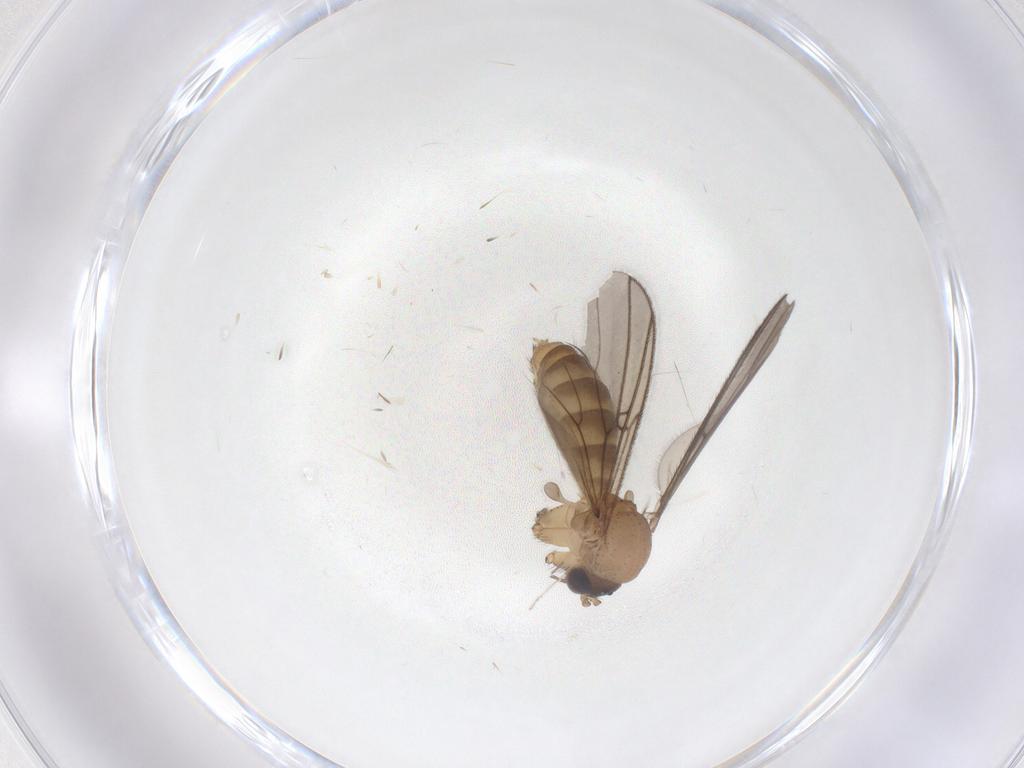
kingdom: Animalia
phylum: Arthropoda
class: Insecta
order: Diptera
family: Mycetophilidae
